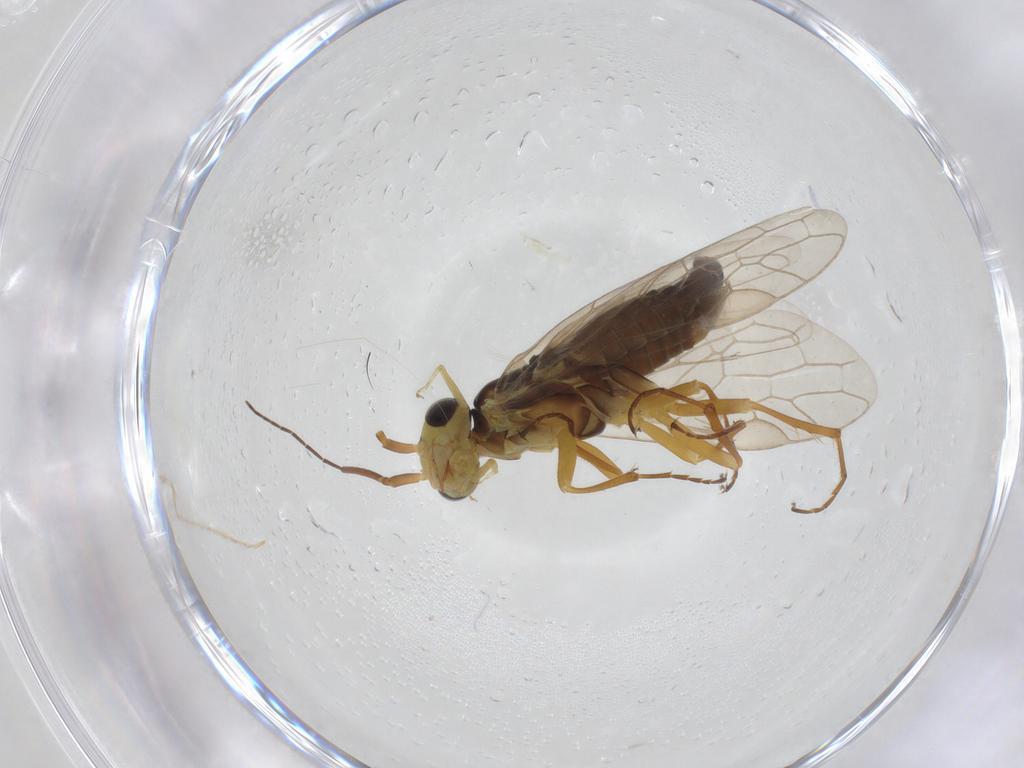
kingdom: Animalia
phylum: Arthropoda
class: Insecta
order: Hymenoptera
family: Xyelidae
